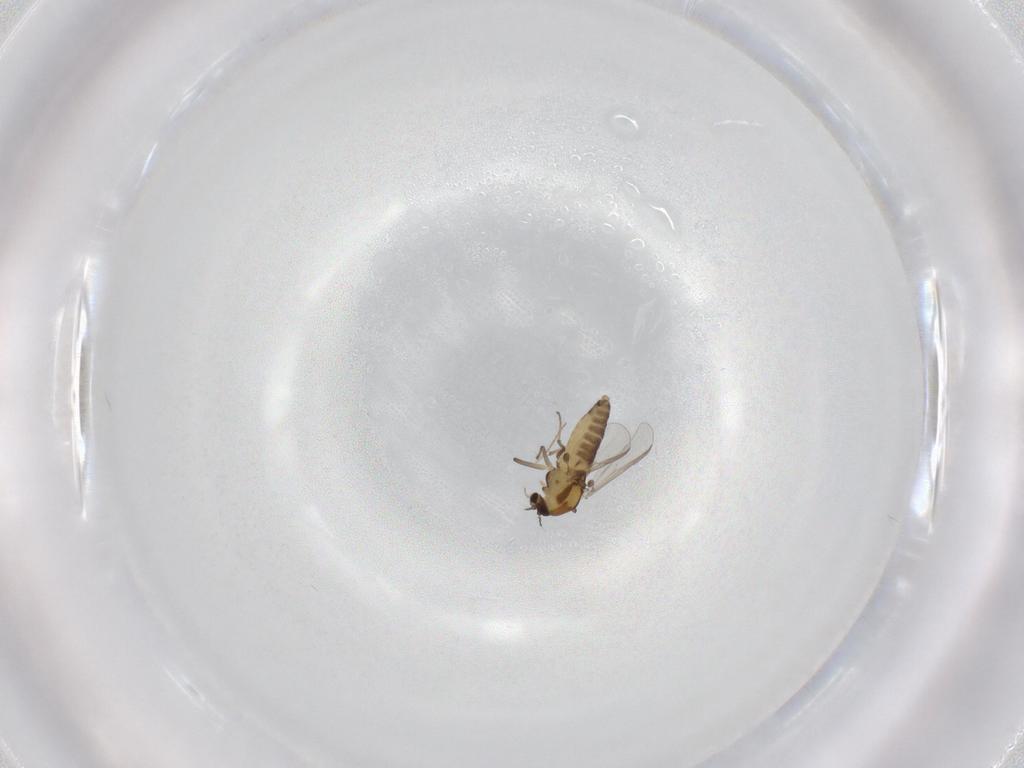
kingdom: Animalia
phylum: Arthropoda
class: Insecta
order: Diptera
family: Chironomidae
